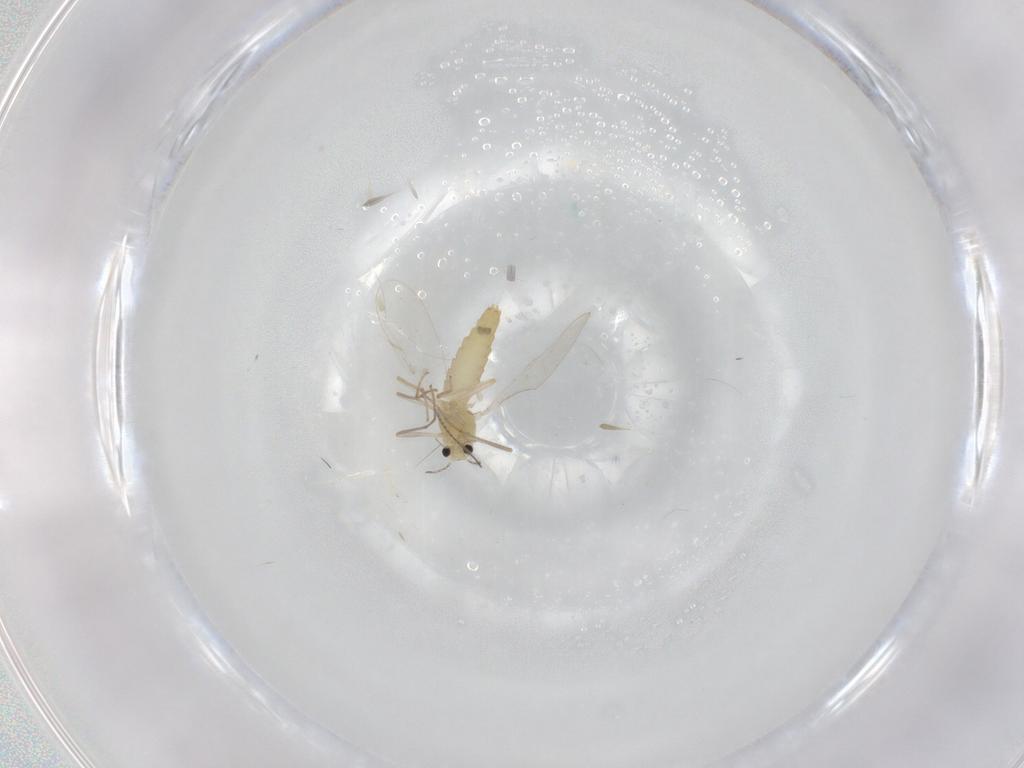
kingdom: Animalia
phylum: Arthropoda
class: Insecta
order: Diptera
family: Chironomidae
